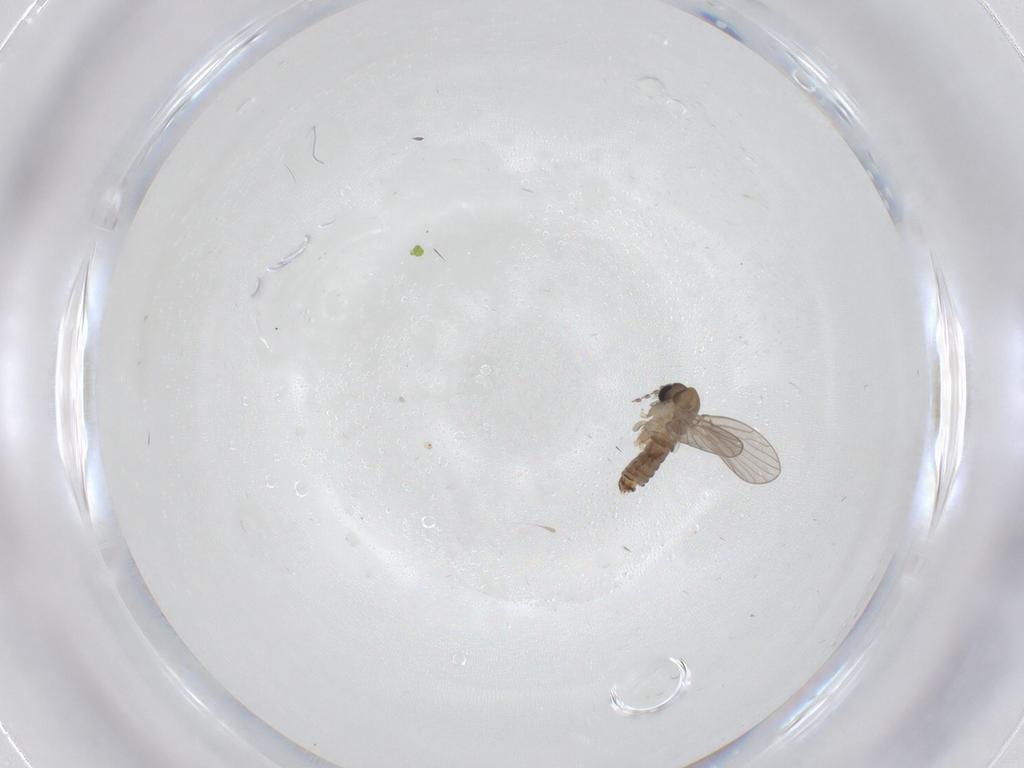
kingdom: Animalia
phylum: Arthropoda
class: Insecta
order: Diptera
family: Psychodidae
